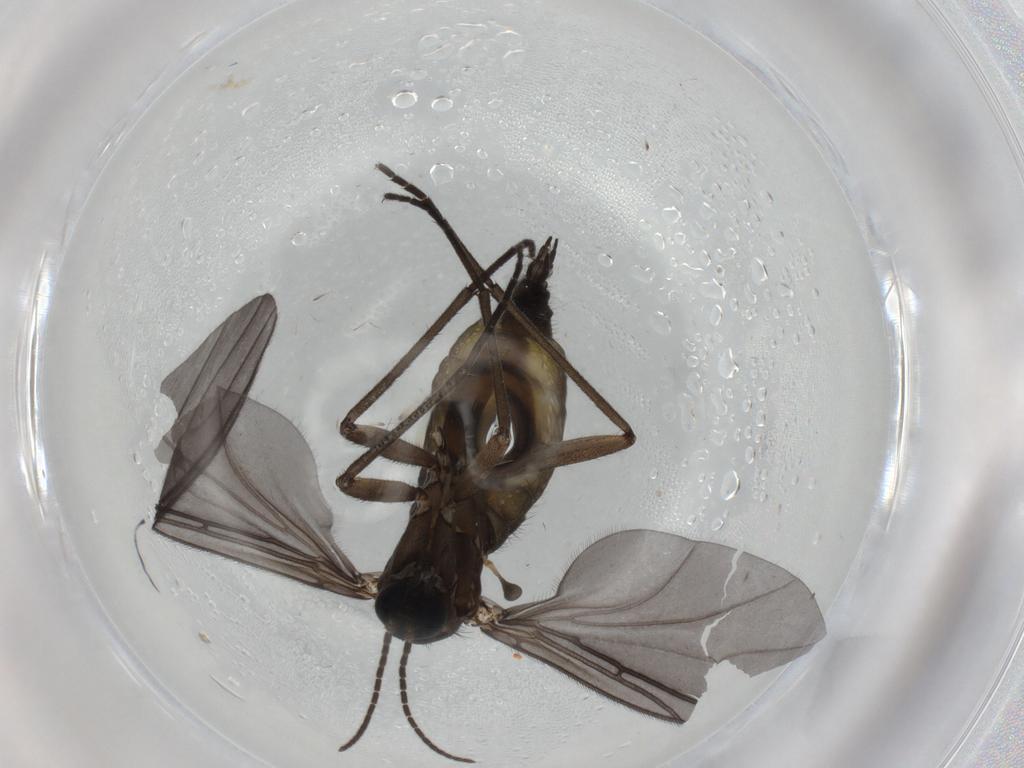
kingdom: Animalia
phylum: Arthropoda
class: Insecta
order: Diptera
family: Sciaridae
